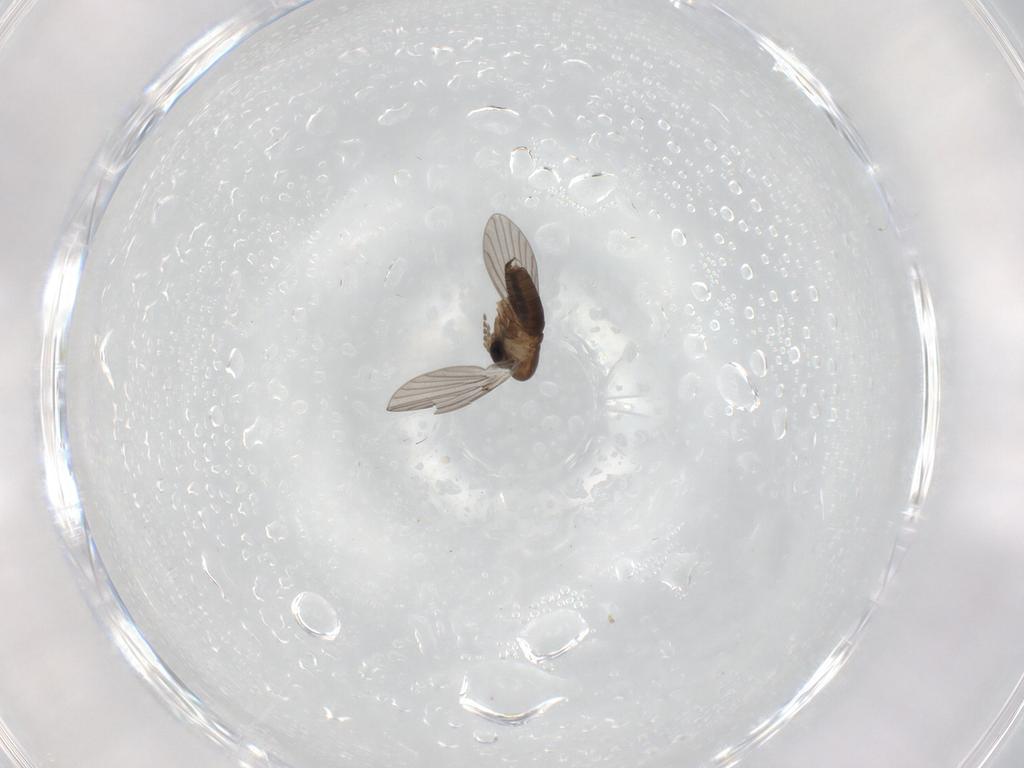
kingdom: Animalia
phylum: Arthropoda
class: Insecta
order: Diptera
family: Cecidomyiidae
